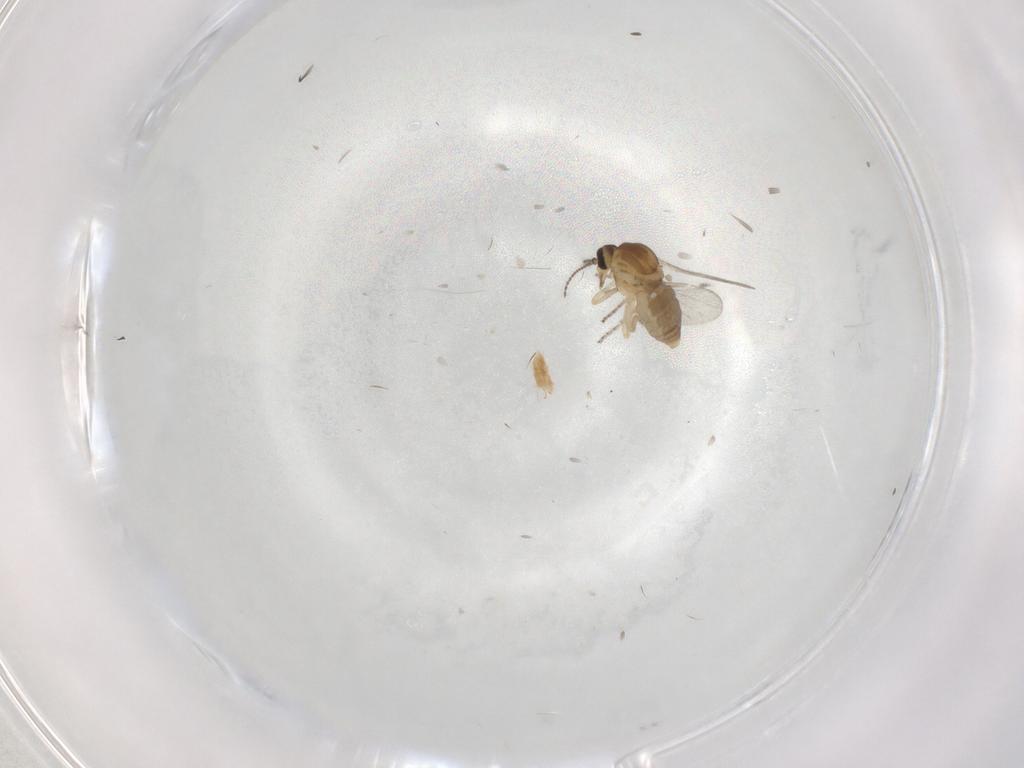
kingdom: Animalia
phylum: Arthropoda
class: Insecta
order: Diptera
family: Ceratopogonidae
